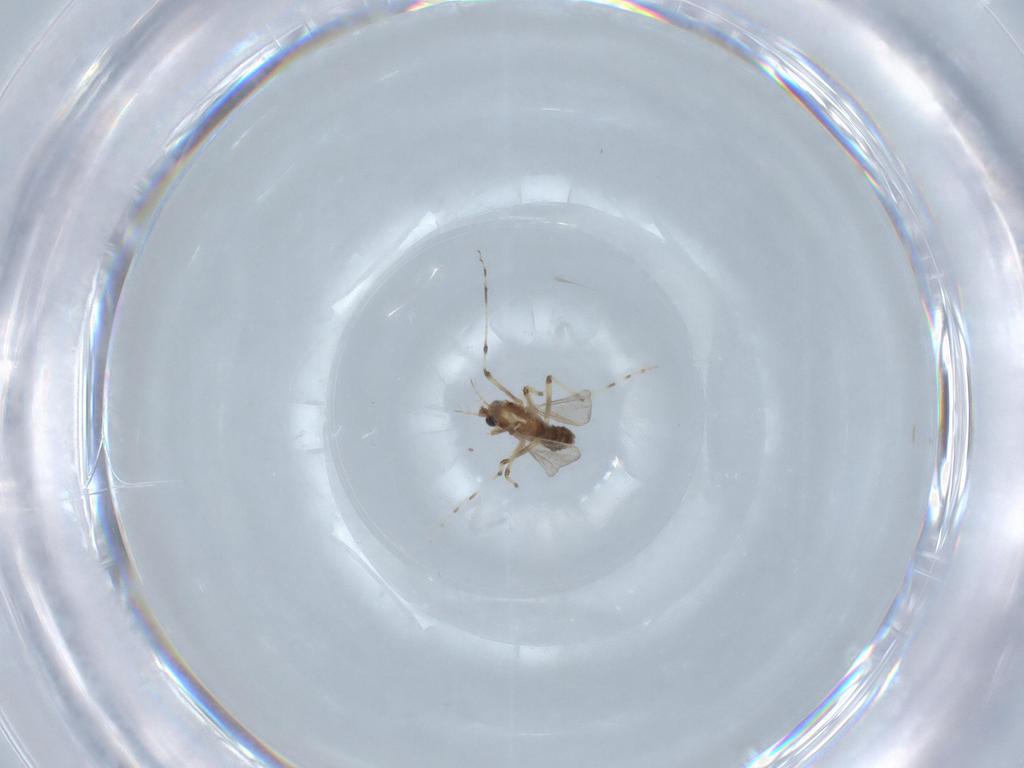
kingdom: Animalia
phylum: Arthropoda
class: Insecta
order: Diptera
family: Chironomidae
